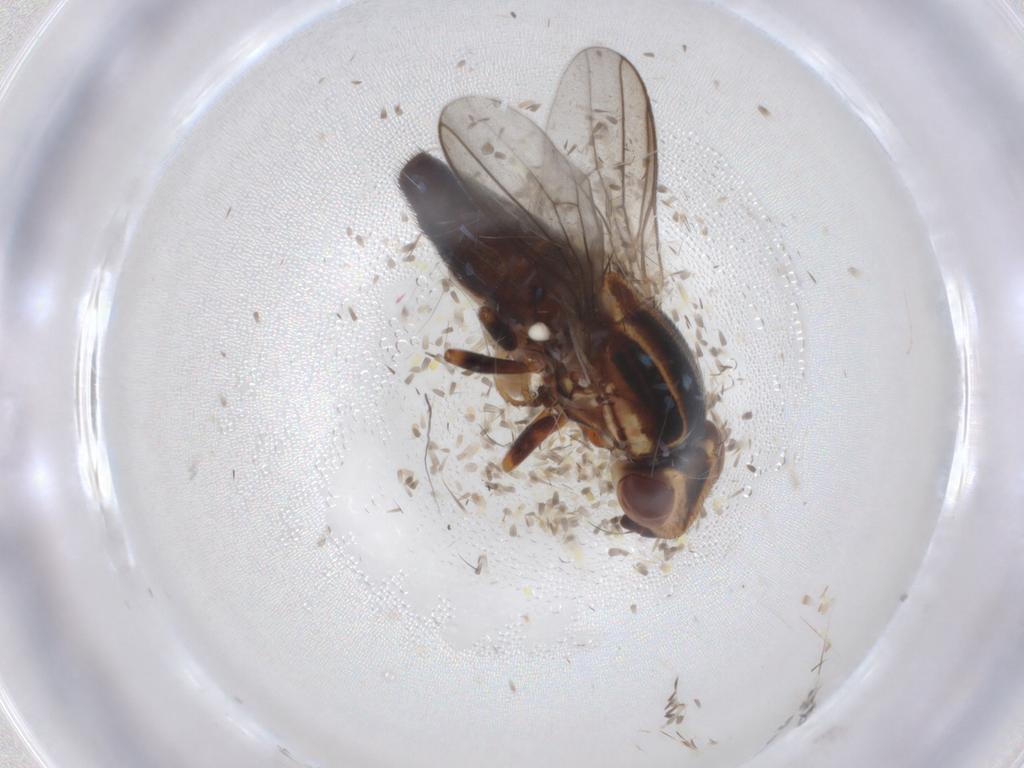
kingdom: Animalia
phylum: Arthropoda
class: Insecta
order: Diptera
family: Chloropidae
